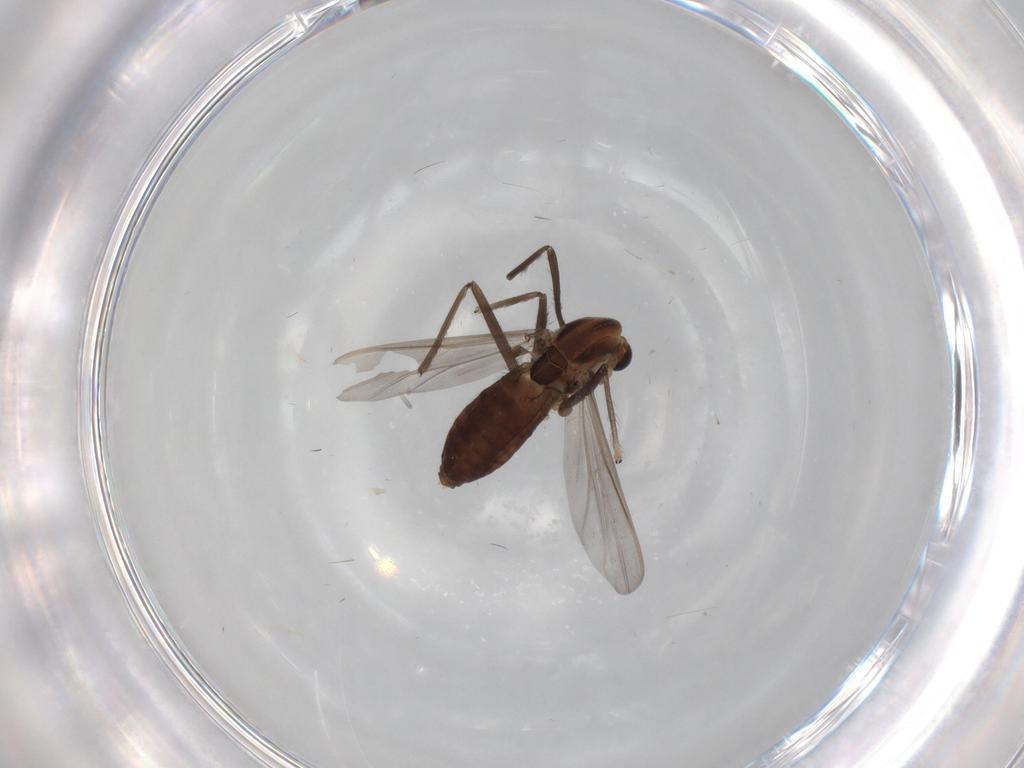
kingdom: Animalia
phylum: Arthropoda
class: Insecta
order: Diptera
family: Chironomidae
